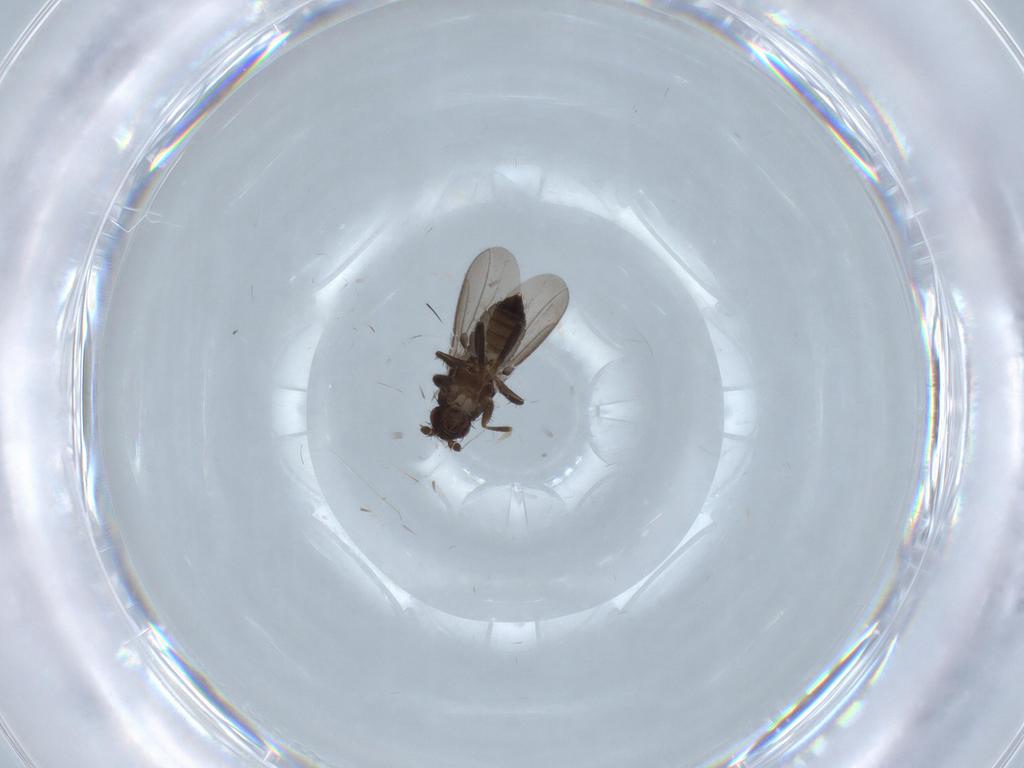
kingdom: Animalia
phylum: Arthropoda
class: Insecta
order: Diptera
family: Sphaeroceridae
